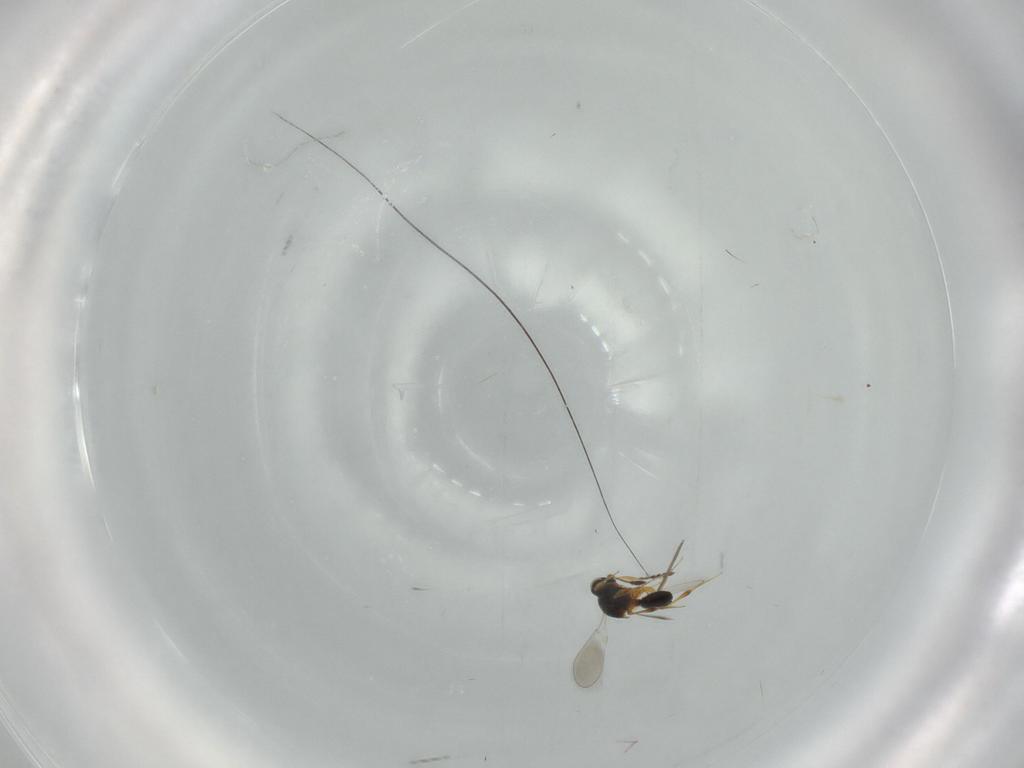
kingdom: Animalia
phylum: Arthropoda
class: Insecta
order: Hymenoptera
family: Platygastridae
